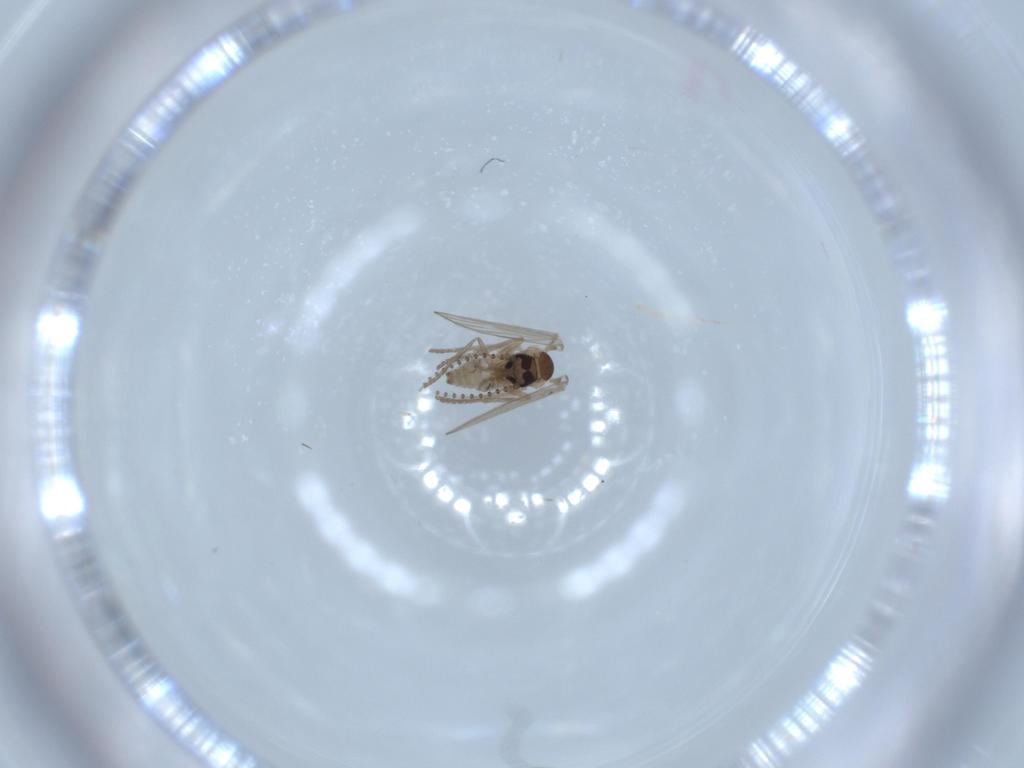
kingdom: Animalia
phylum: Arthropoda
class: Insecta
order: Diptera
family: Psychodidae
